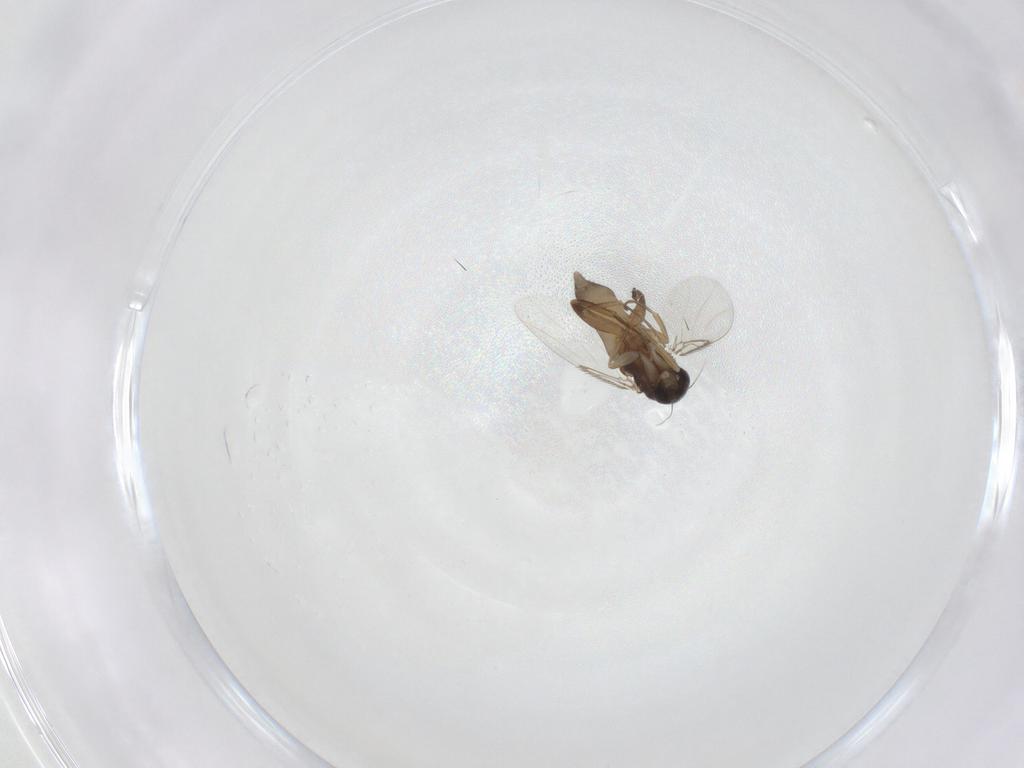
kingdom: Animalia
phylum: Arthropoda
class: Insecta
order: Diptera
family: Phoridae
